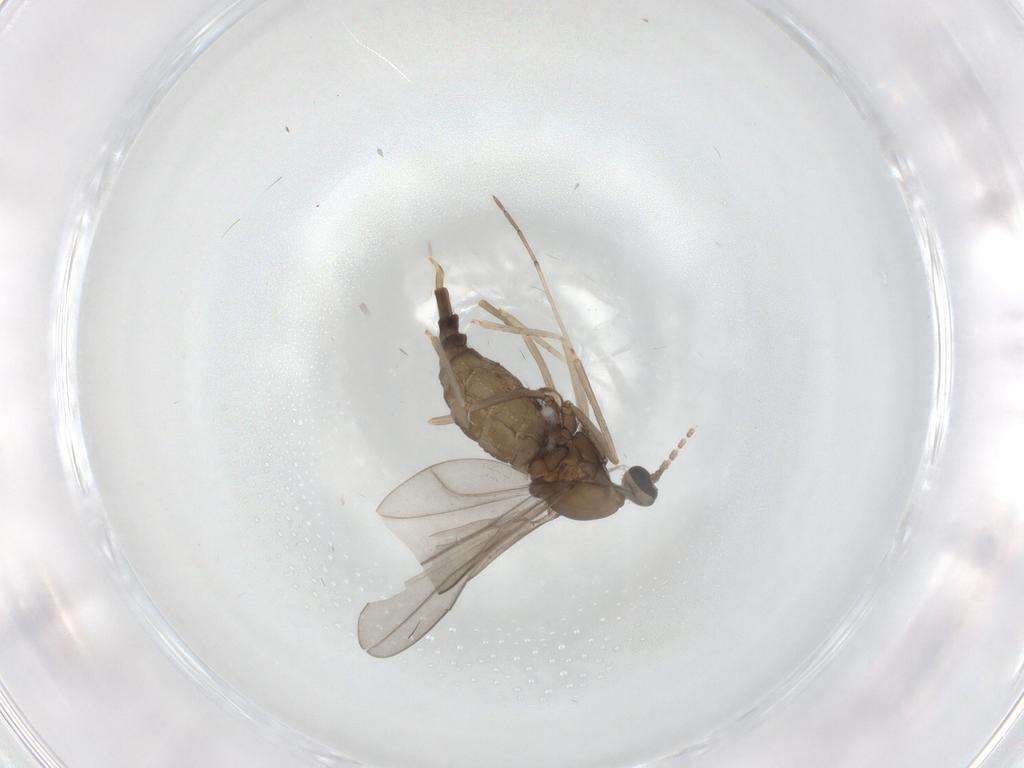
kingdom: Animalia
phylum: Arthropoda
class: Insecta
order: Diptera
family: Cecidomyiidae
